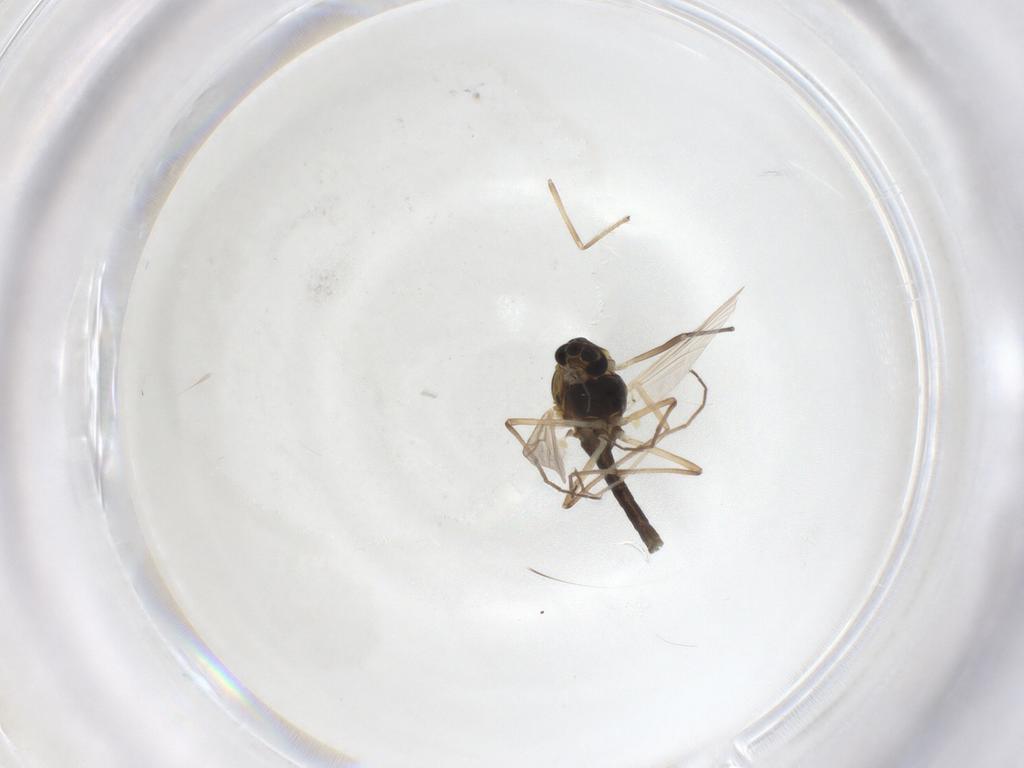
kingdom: Animalia
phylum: Arthropoda
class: Insecta
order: Diptera
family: Chironomidae
